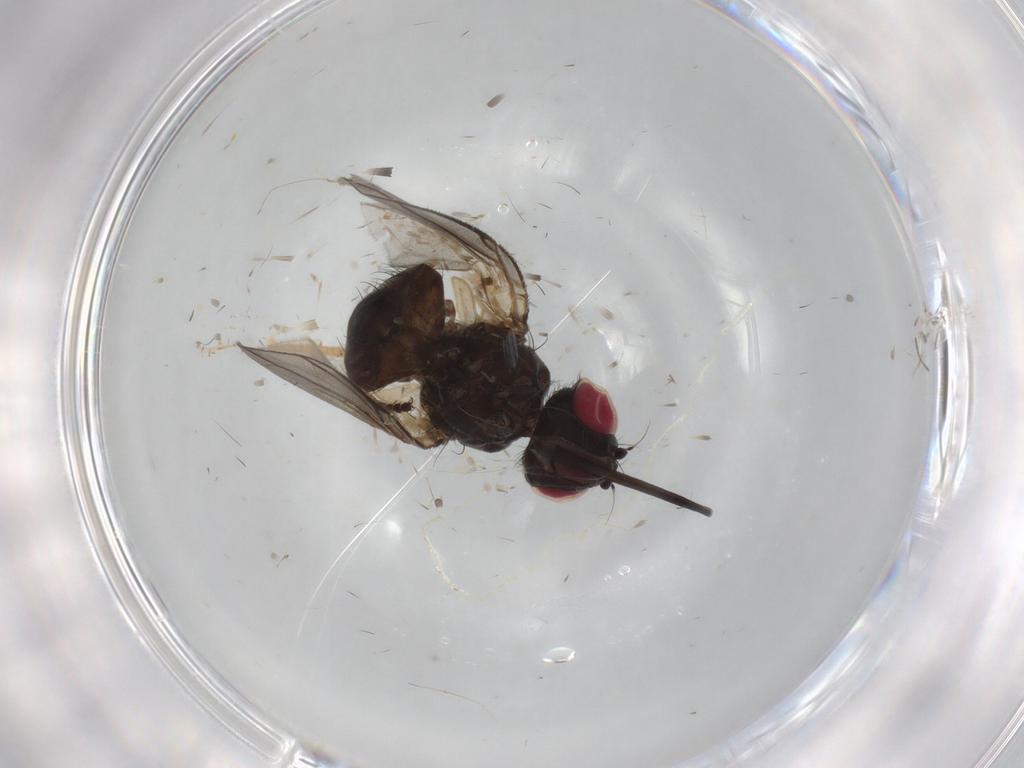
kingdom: Animalia
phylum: Arthropoda
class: Insecta
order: Diptera
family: Tachinidae
